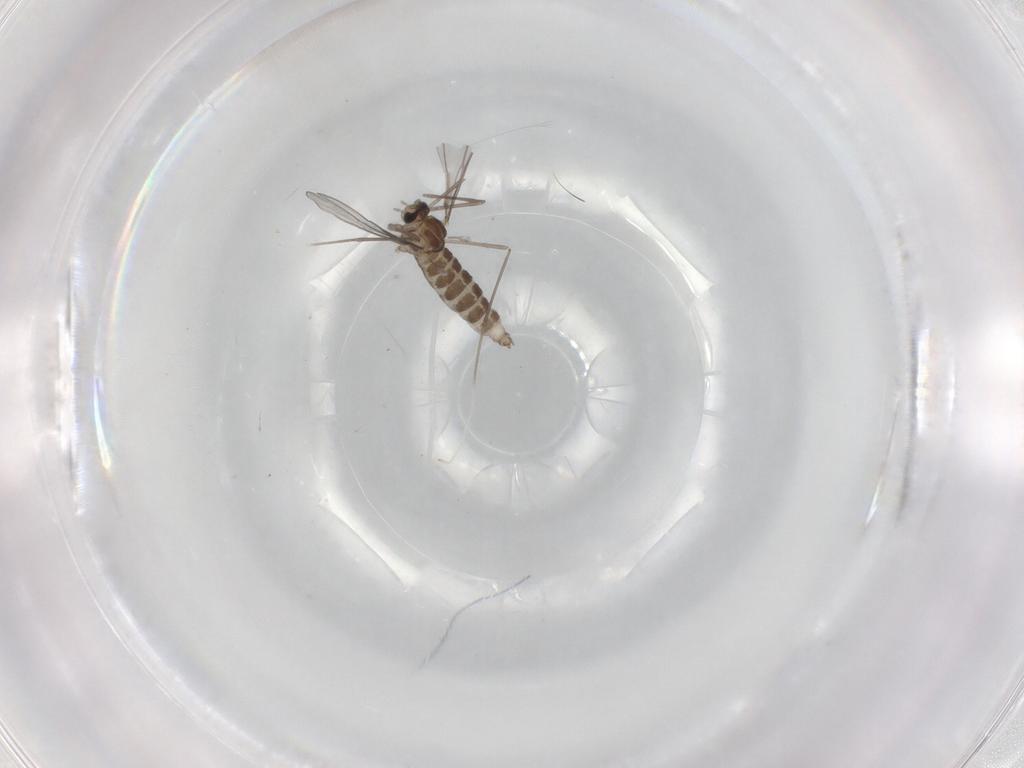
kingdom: Animalia
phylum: Arthropoda
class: Insecta
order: Diptera
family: Cecidomyiidae
